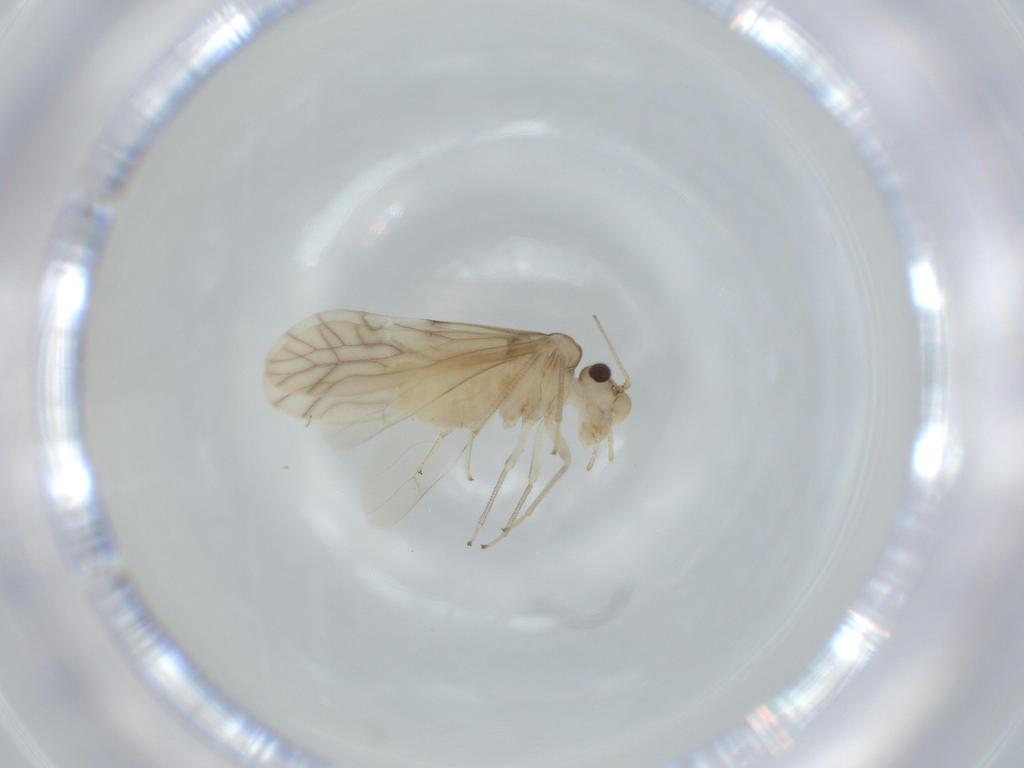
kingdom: Animalia
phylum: Arthropoda
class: Insecta
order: Psocodea
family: Caeciliusidae
